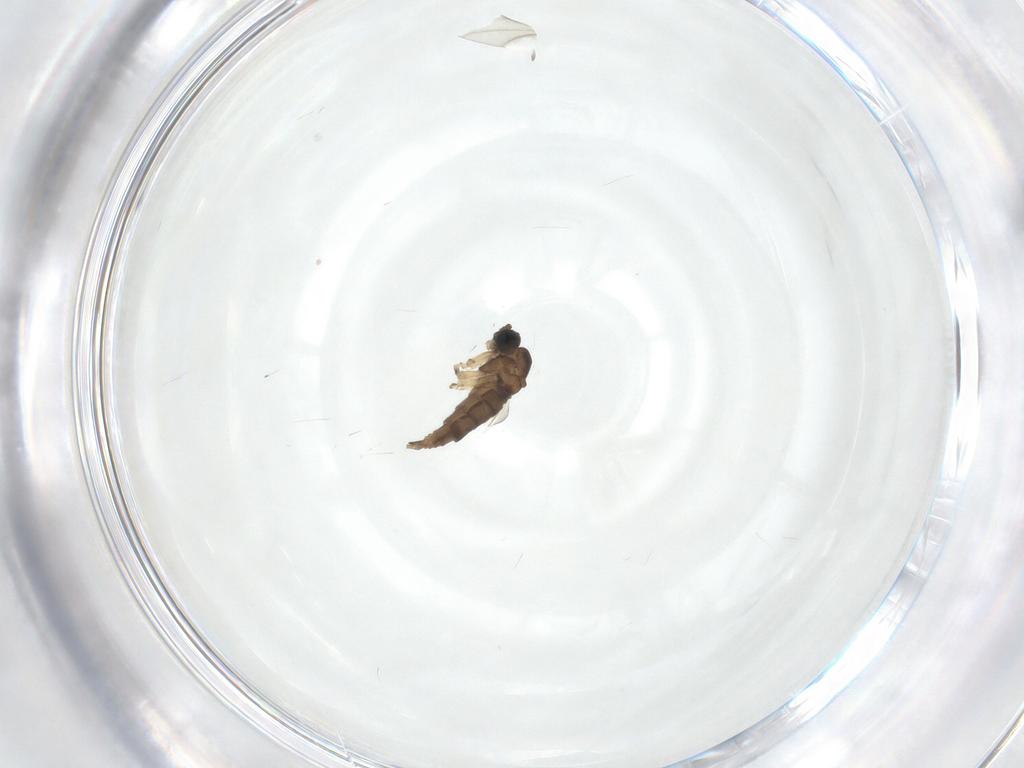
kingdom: Animalia
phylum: Arthropoda
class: Insecta
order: Diptera
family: Sciaridae
